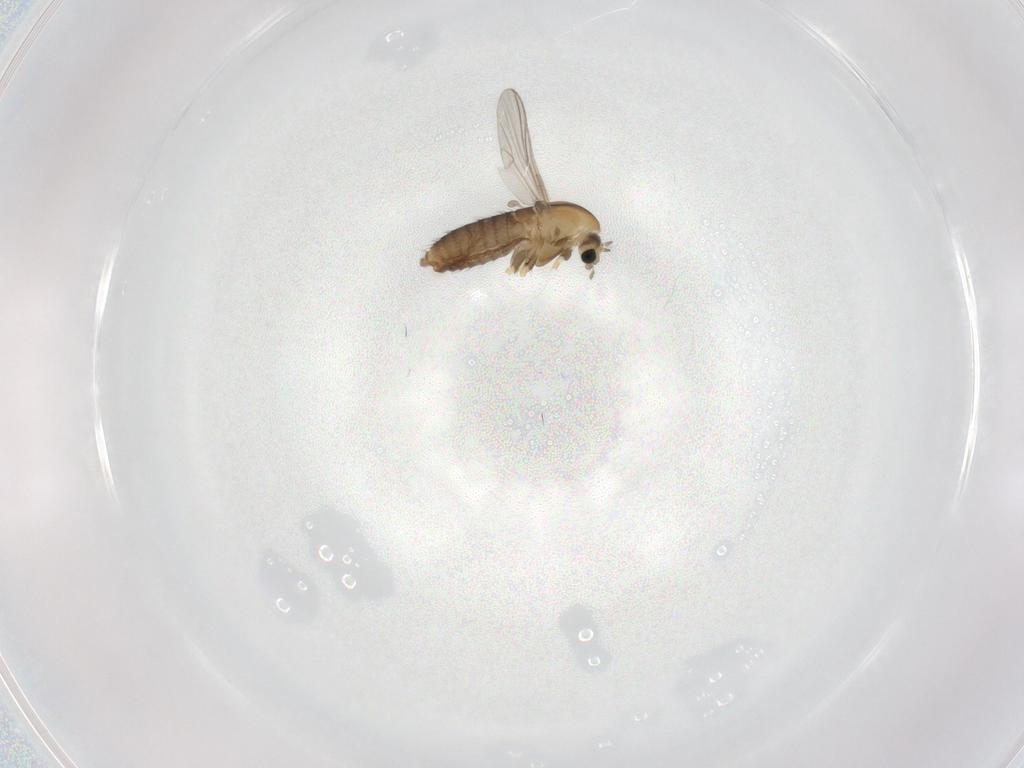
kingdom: Animalia
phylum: Arthropoda
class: Insecta
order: Diptera
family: Chironomidae
